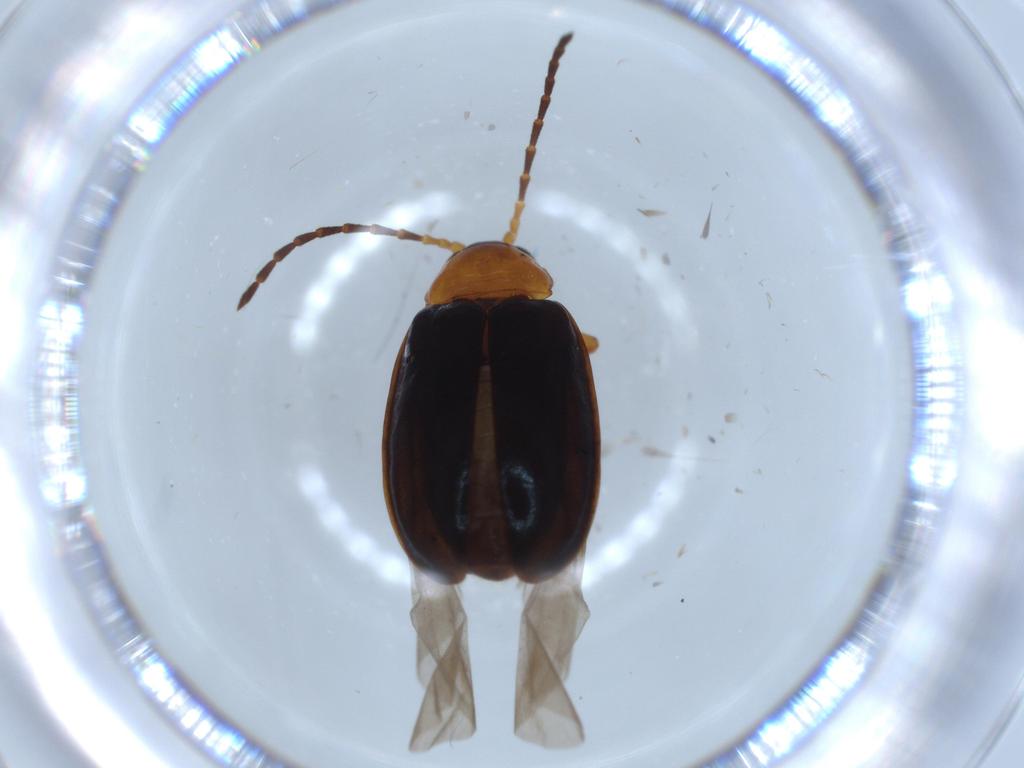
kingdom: Animalia
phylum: Arthropoda
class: Insecta
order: Coleoptera
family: Chrysomelidae
